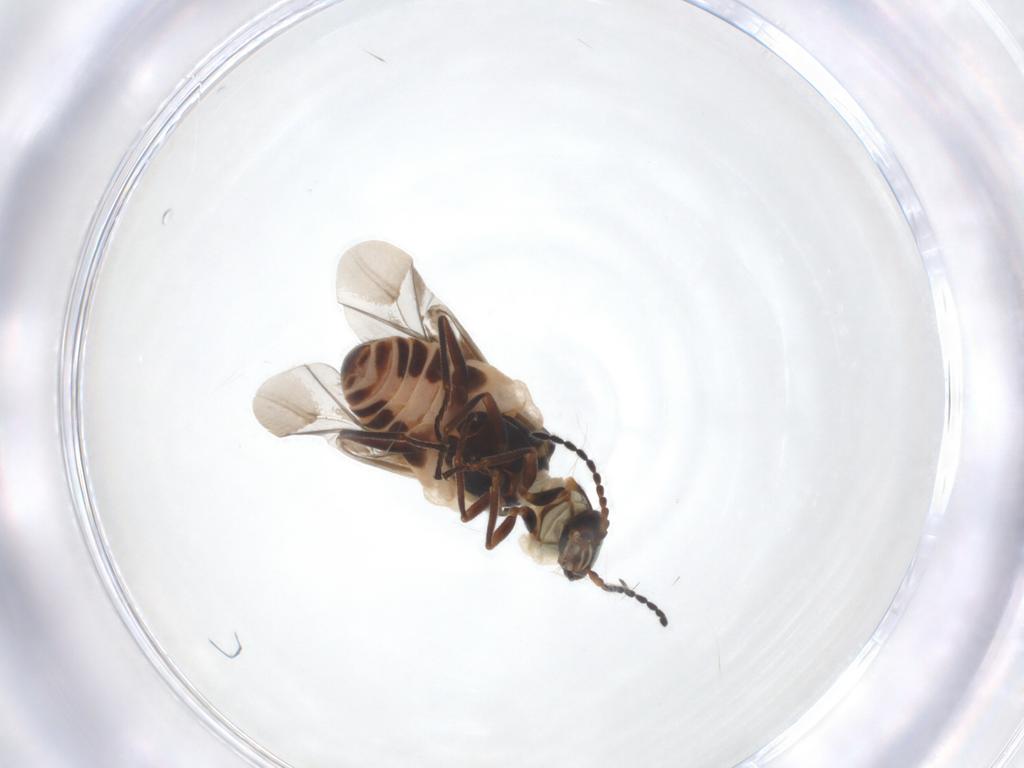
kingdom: Animalia
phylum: Arthropoda
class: Insecta
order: Coleoptera
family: Melyridae
